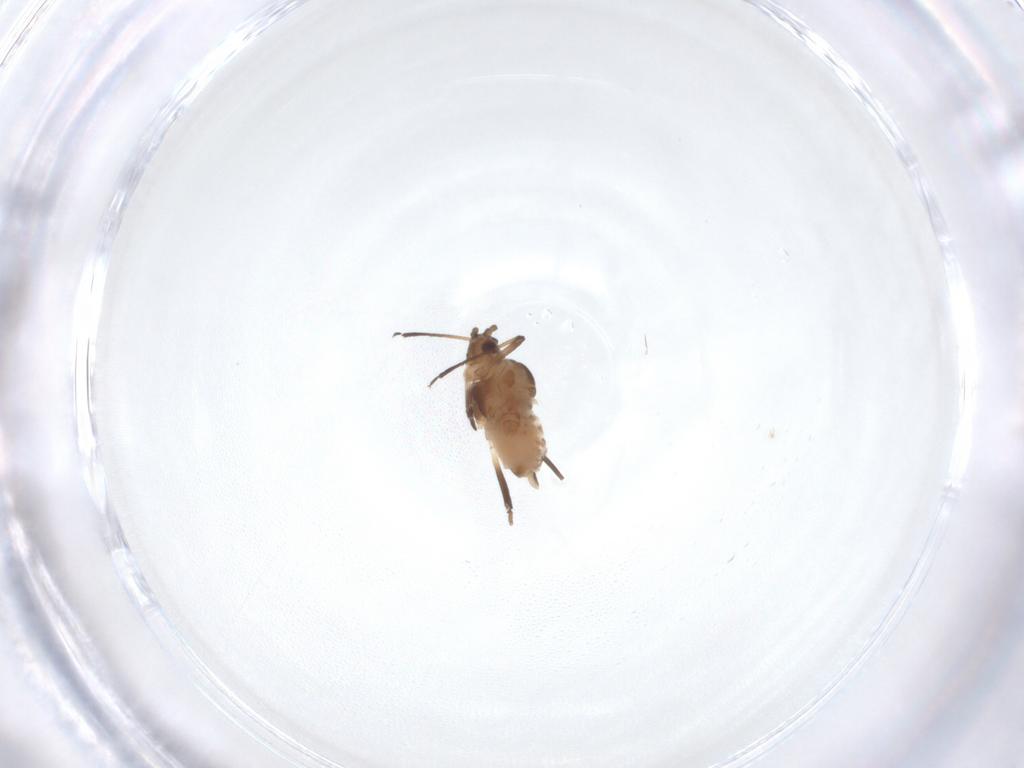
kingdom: Animalia
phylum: Arthropoda
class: Insecta
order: Hemiptera
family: Aphididae
